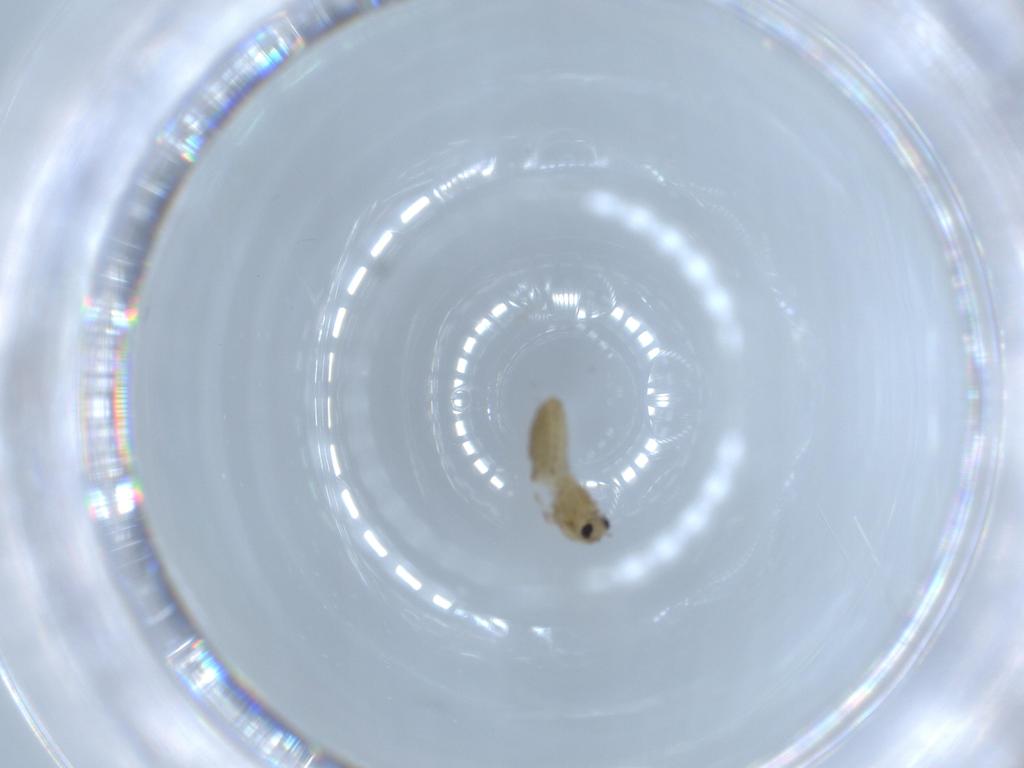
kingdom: Animalia
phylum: Arthropoda
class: Insecta
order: Diptera
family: Chironomidae
